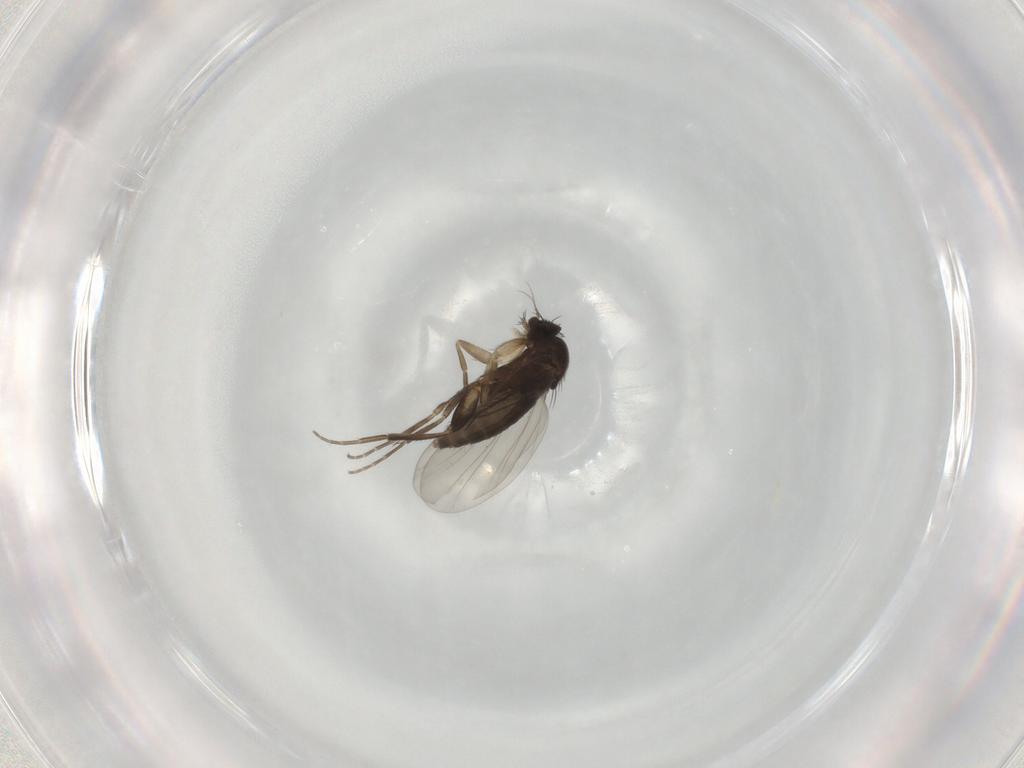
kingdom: Animalia
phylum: Arthropoda
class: Insecta
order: Diptera
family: Phoridae
